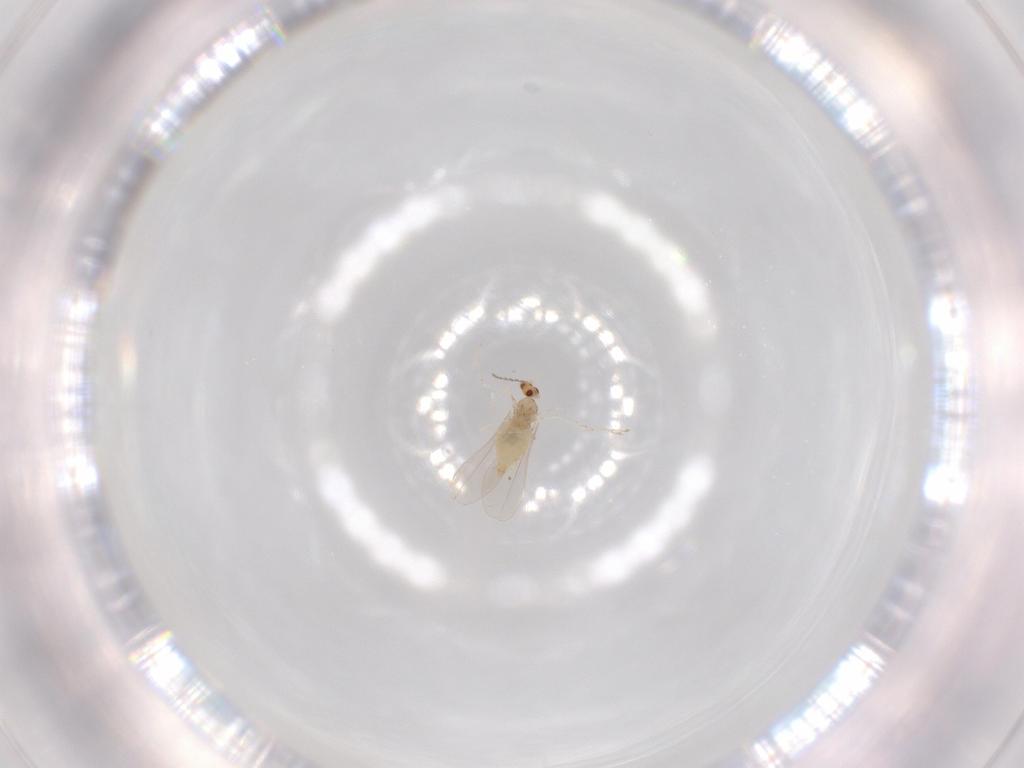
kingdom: Animalia
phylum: Arthropoda
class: Insecta
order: Diptera
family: Cecidomyiidae
